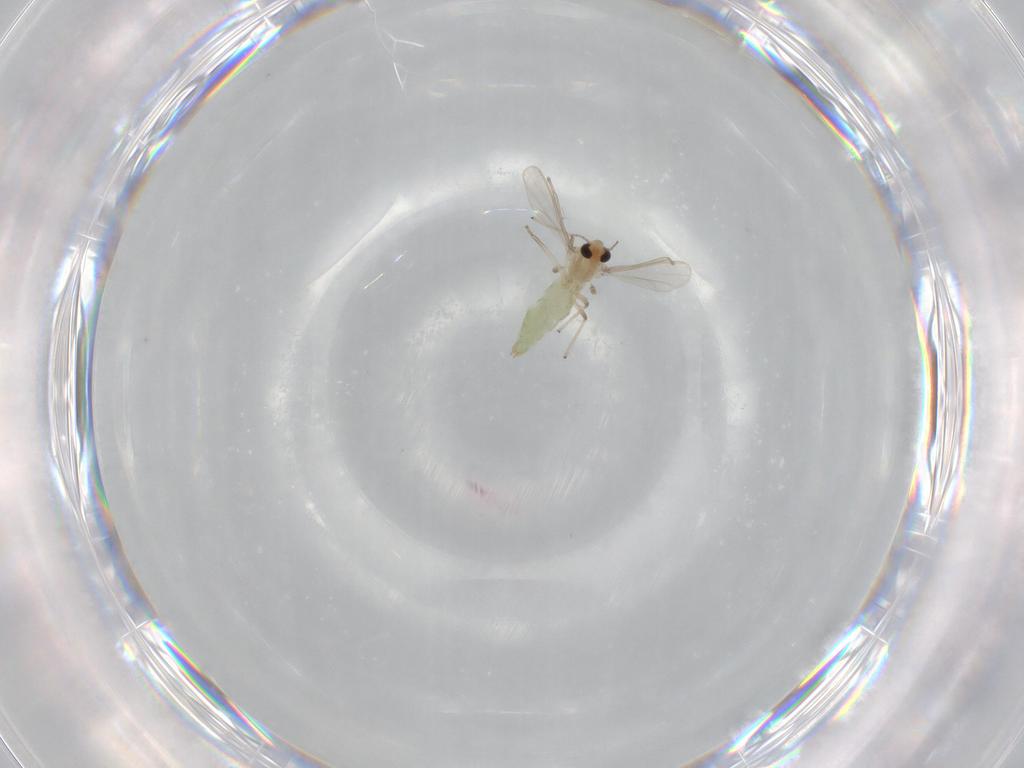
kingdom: Animalia
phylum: Arthropoda
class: Insecta
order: Diptera
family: Chironomidae
